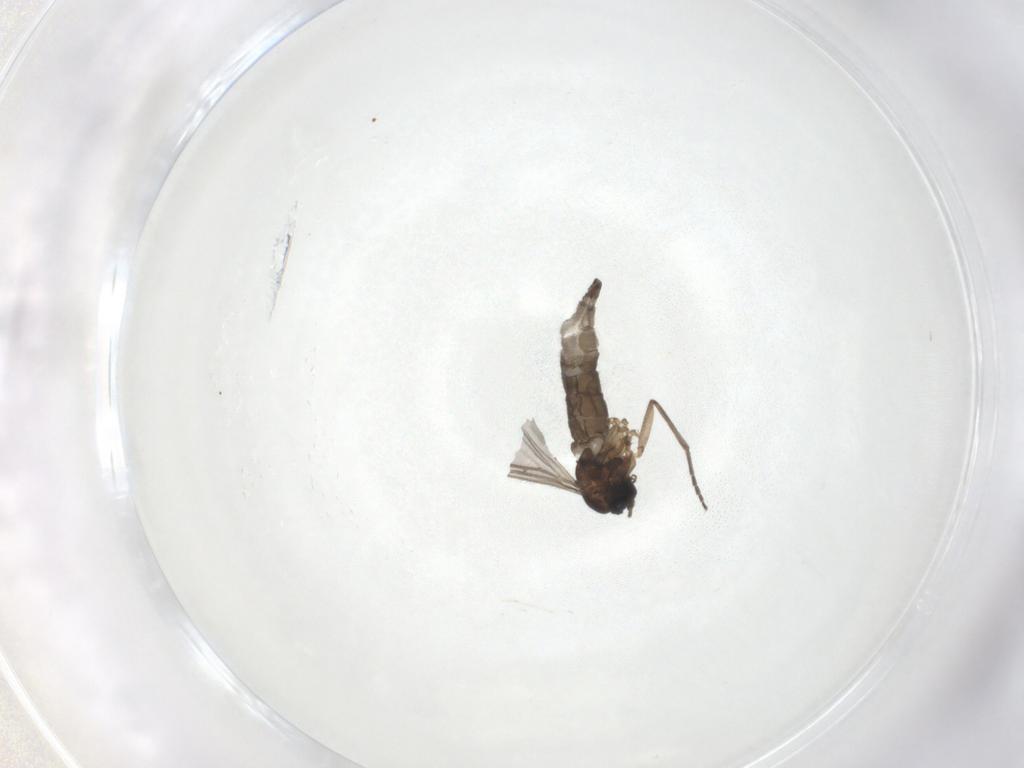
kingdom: Animalia
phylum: Arthropoda
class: Insecta
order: Diptera
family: Sciaridae
